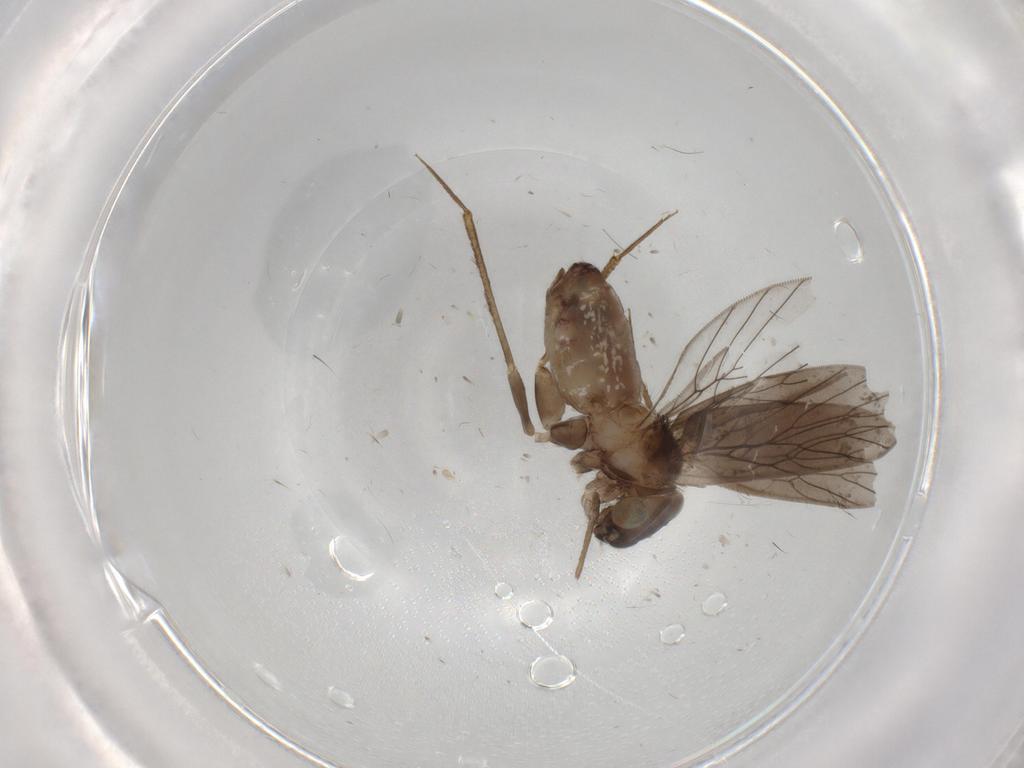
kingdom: Animalia
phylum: Arthropoda
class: Insecta
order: Psocodea
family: Lepidopsocidae
